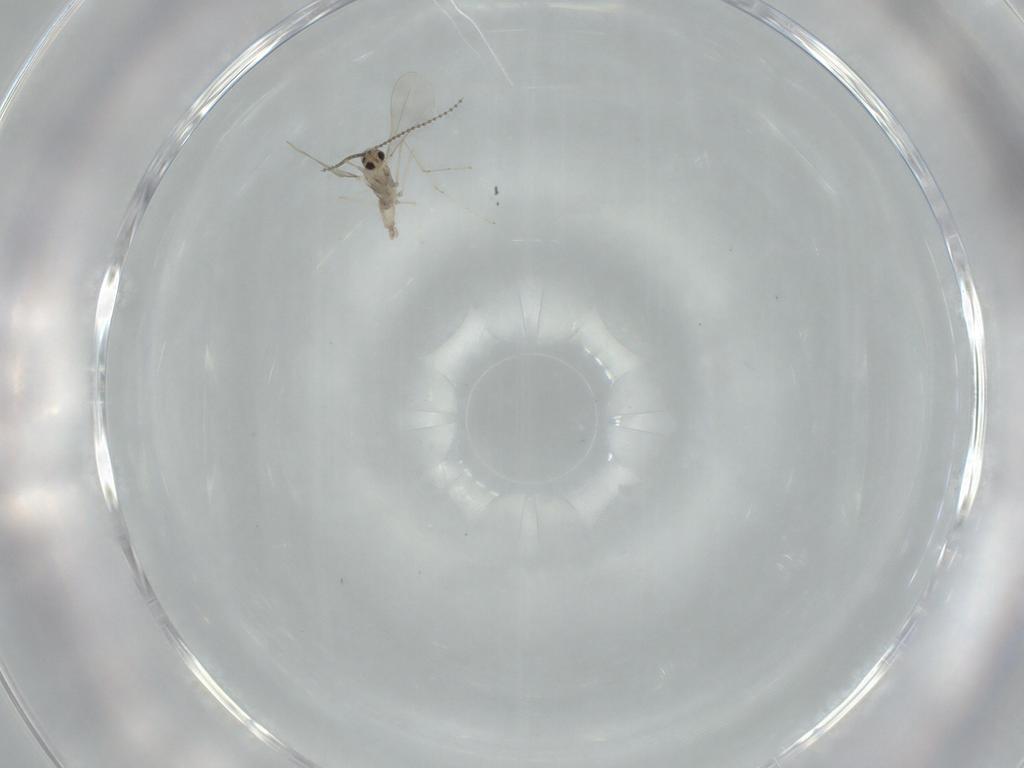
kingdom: Animalia
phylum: Arthropoda
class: Insecta
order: Diptera
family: Cecidomyiidae
